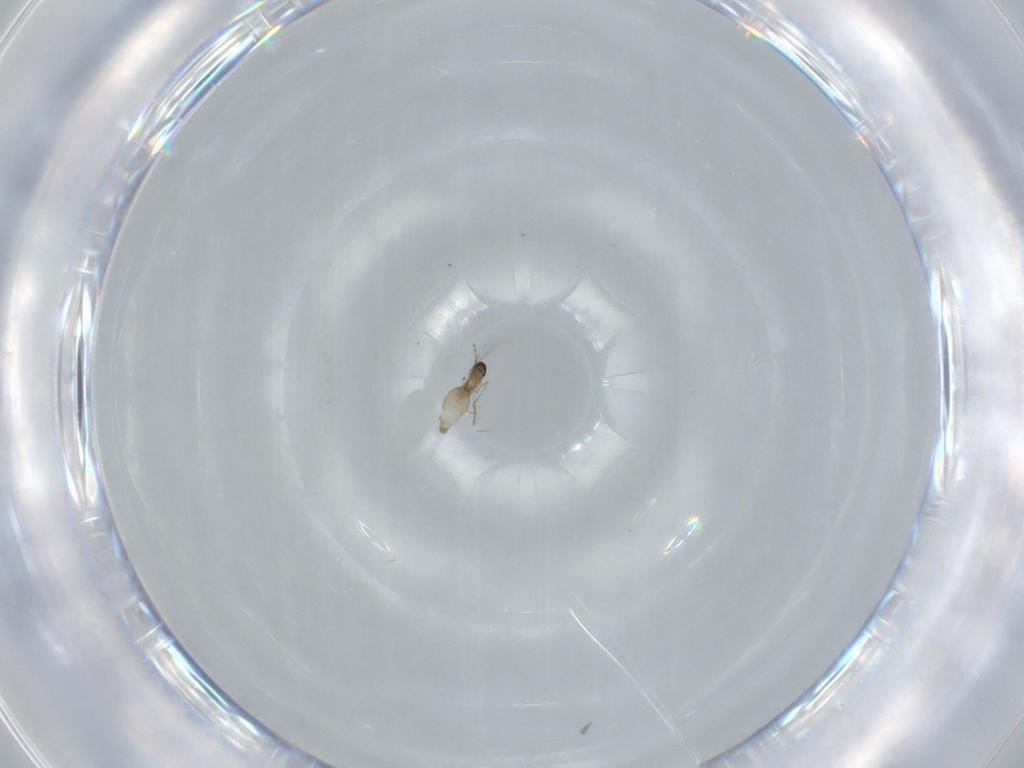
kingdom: Animalia
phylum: Arthropoda
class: Insecta
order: Diptera
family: Cecidomyiidae
